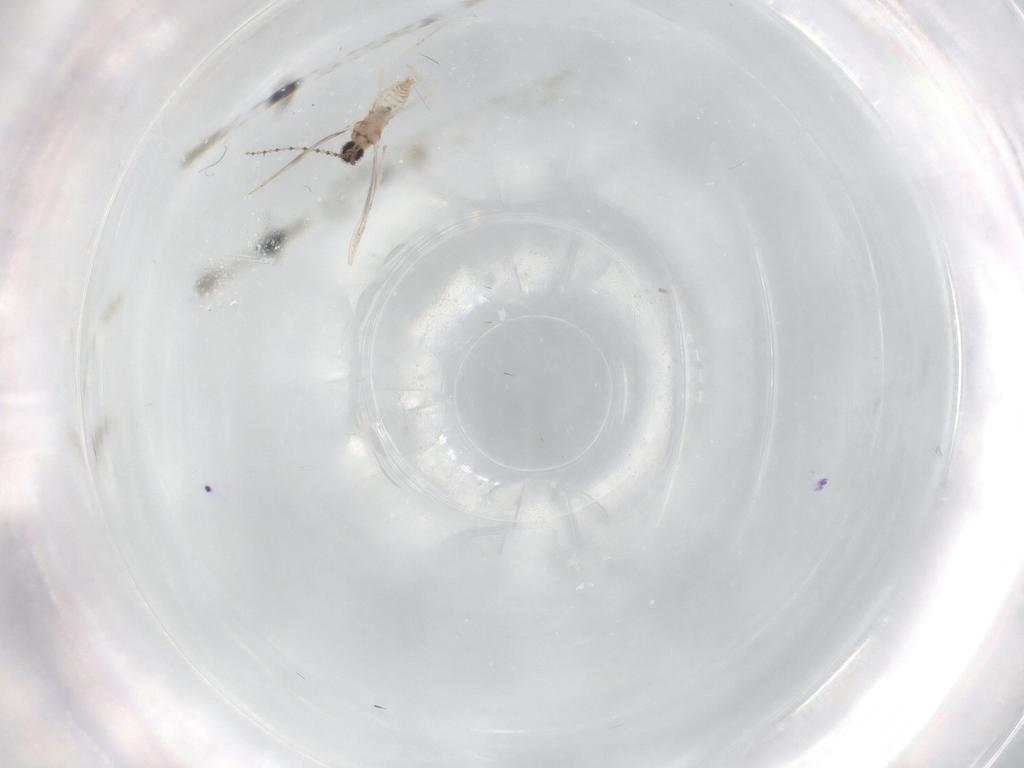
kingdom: Animalia
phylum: Arthropoda
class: Insecta
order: Diptera
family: Cecidomyiidae
